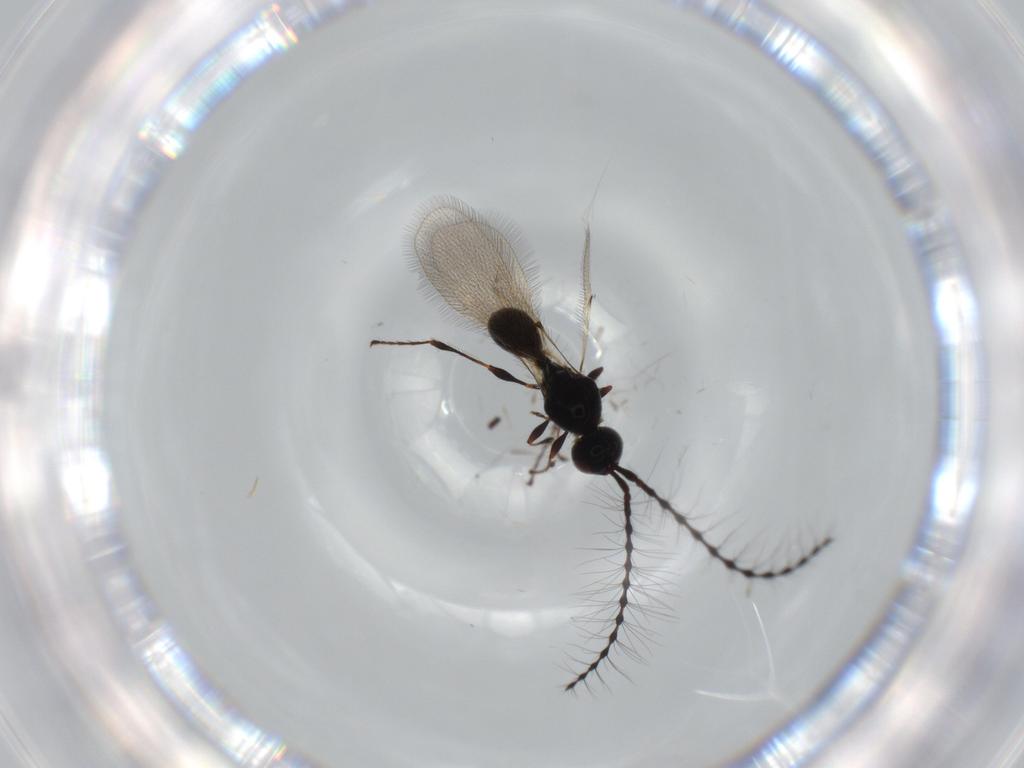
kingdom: Animalia
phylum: Arthropoda
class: Insecta
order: Hymenoptera
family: Diapriidae
